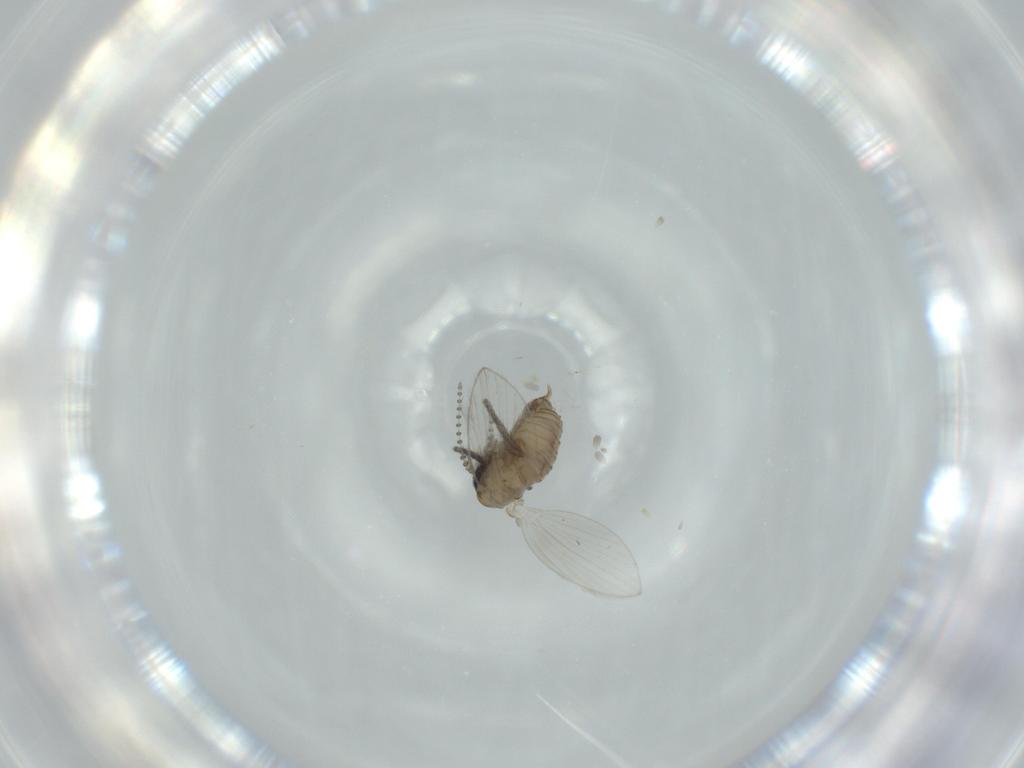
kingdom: Animalia
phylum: Arthropoda
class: Insecta
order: Diptera
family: Psychodidae
